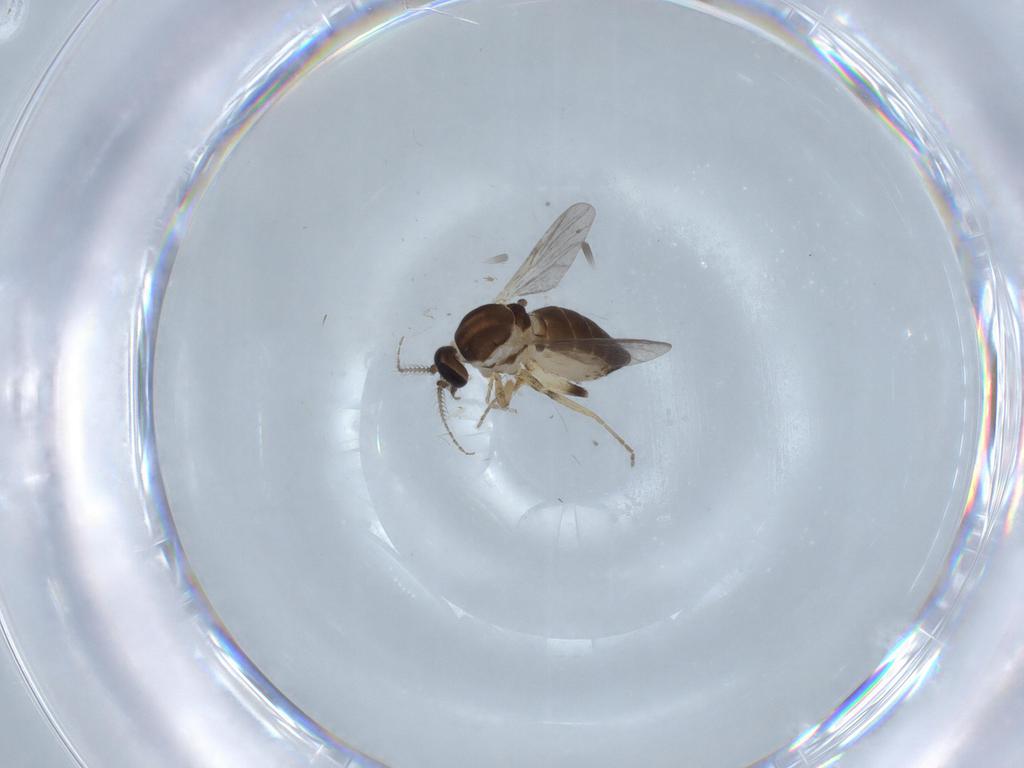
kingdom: Animalia
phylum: Arthropoda
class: Insecta
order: Diptera
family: Ceratopogonidae
